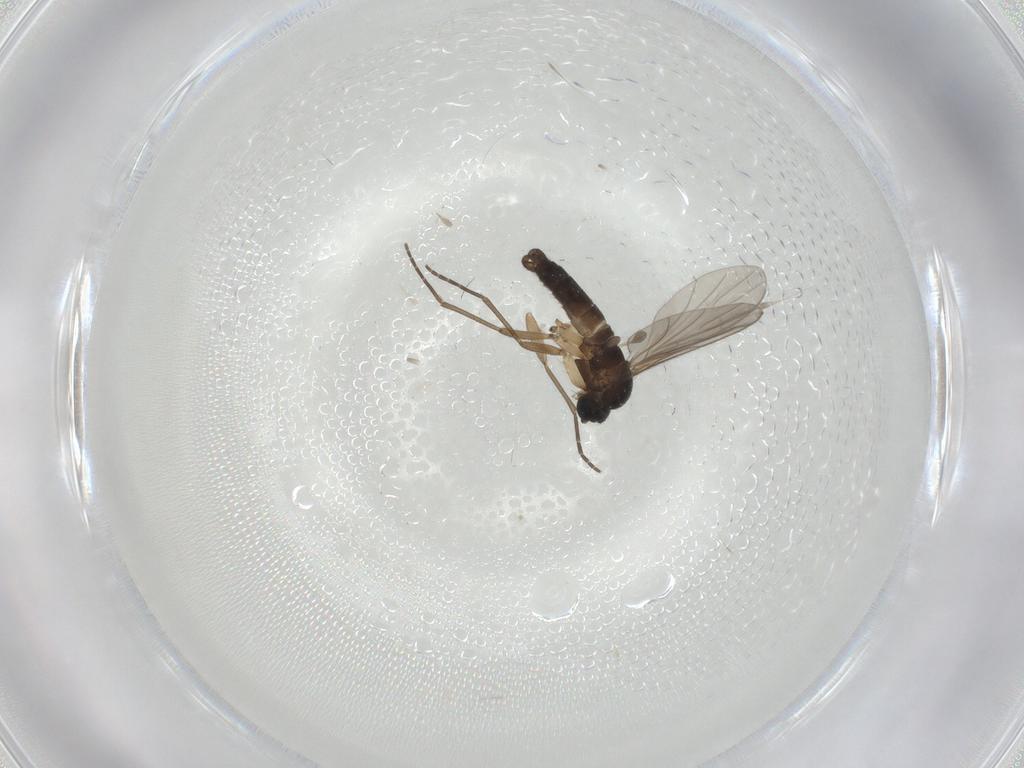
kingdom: Animalia
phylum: Arthropoda
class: Insecta
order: Diptera
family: Sciaridae
